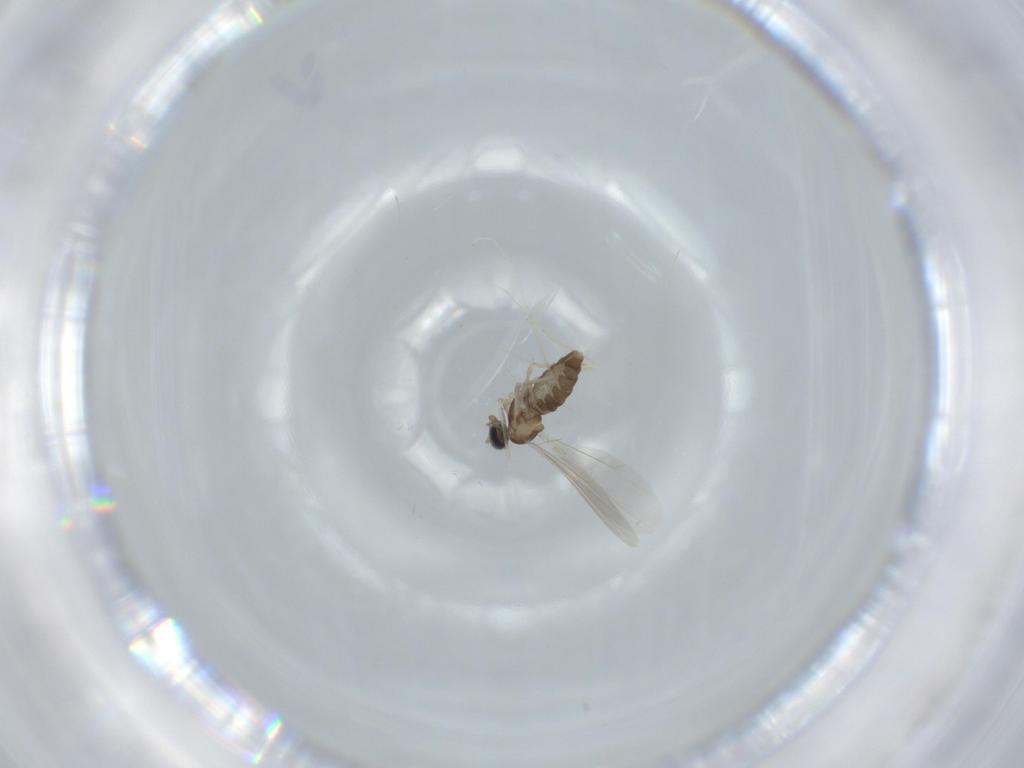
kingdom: Animalia
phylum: Arthropoda
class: Insecta
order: Diptera
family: Cecidomyiidae
